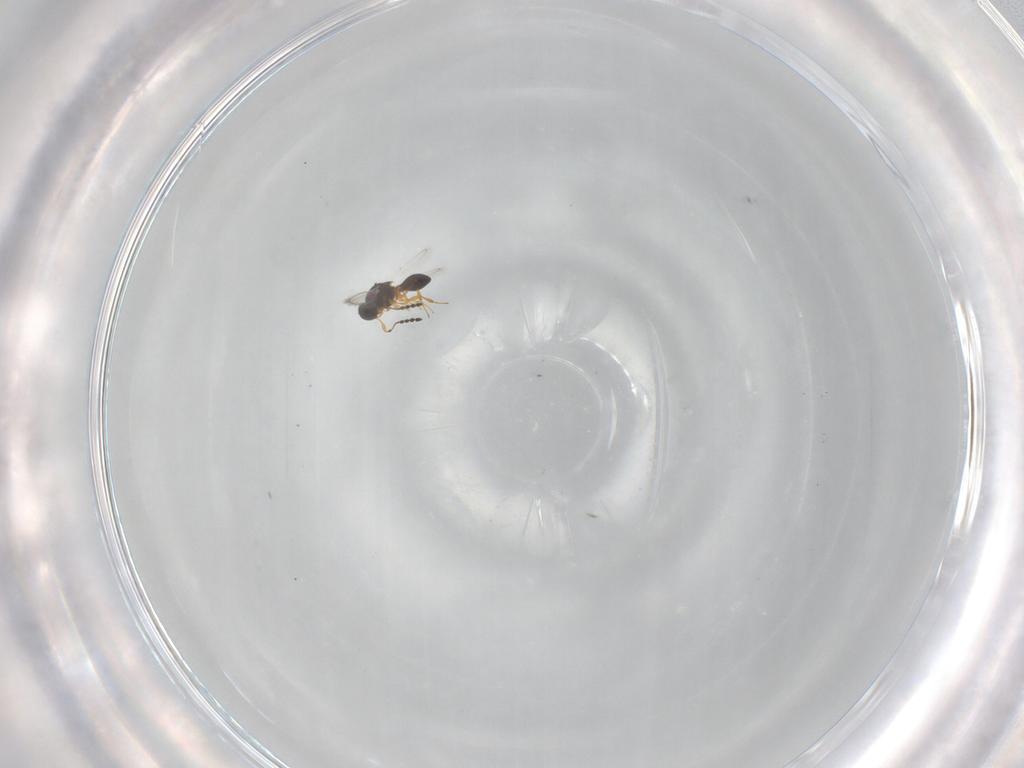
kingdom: Animalia
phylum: Arthropoda
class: Insecta
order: Hymenoptera
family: Platygastridae
